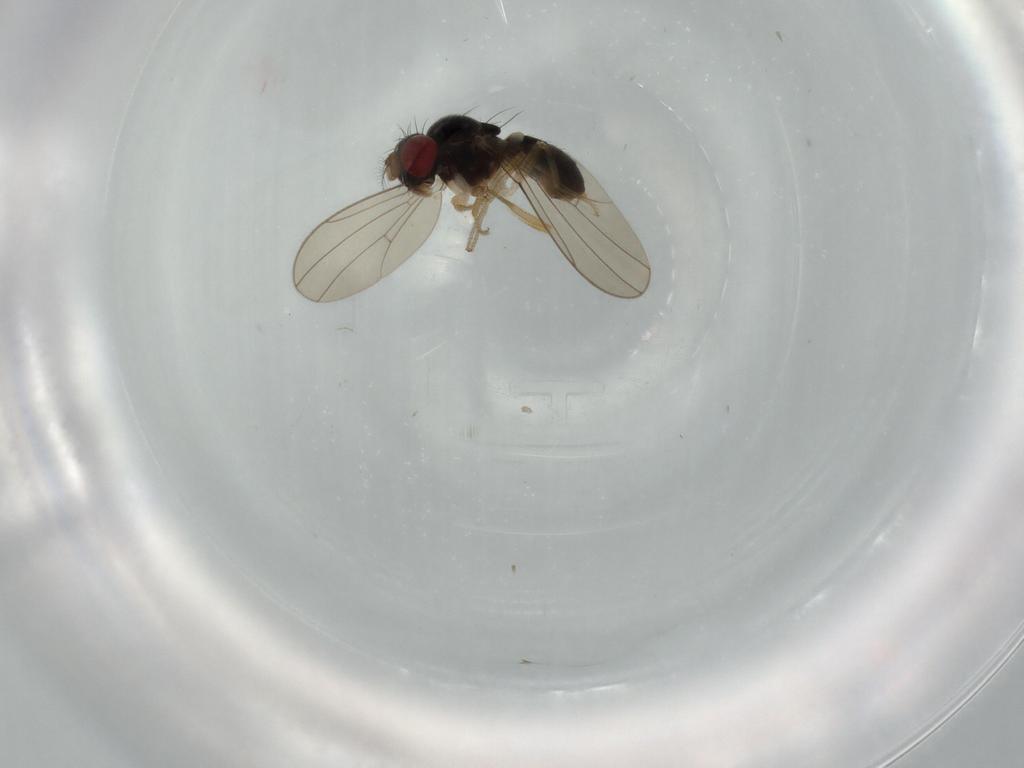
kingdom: Animalia
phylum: Arthropoda
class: Insecta
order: Diptera
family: Drosophilidae
